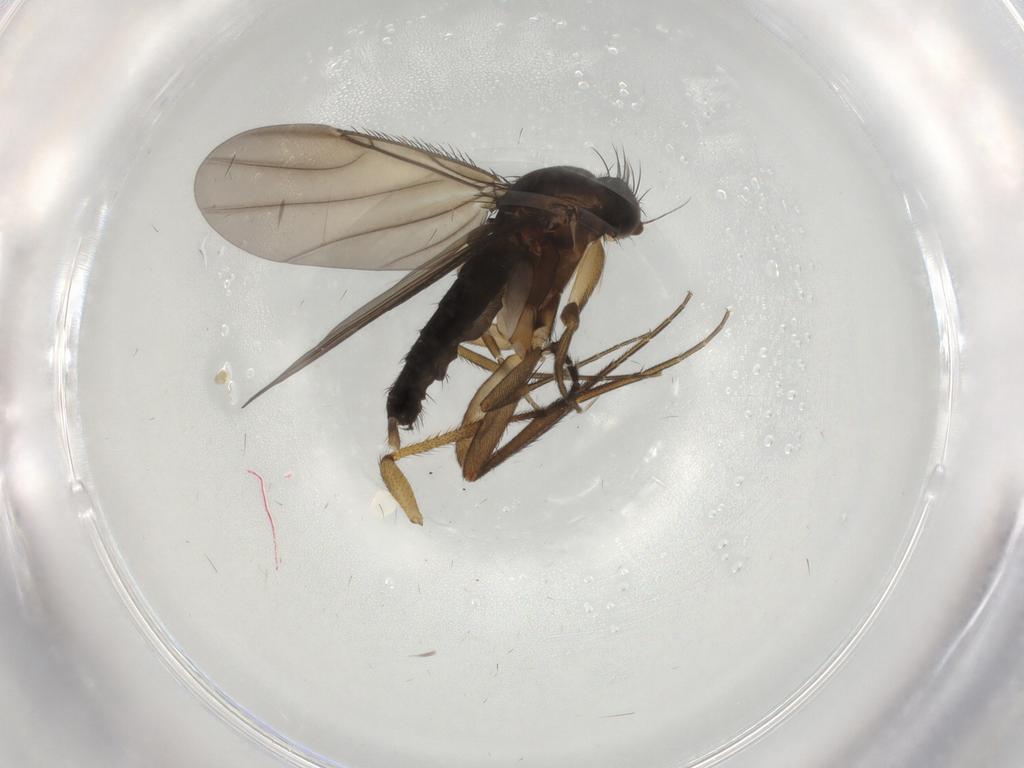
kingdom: Animalia
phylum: Arthropoda
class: Insecta
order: Diptera
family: Phoridae
